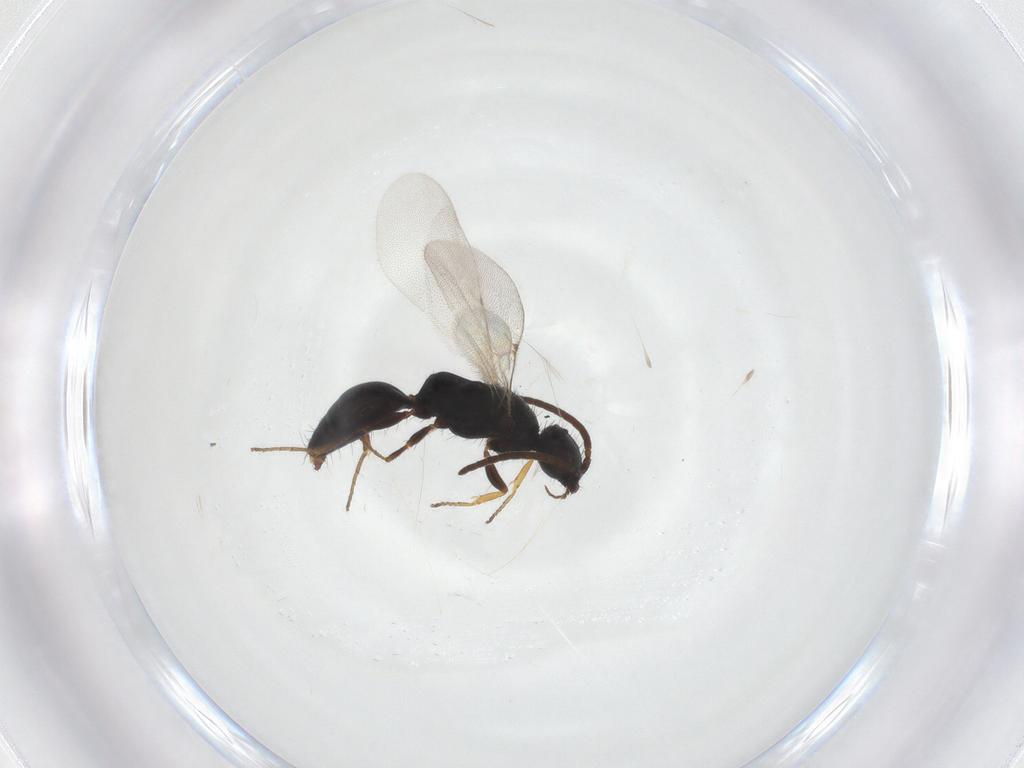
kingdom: Animalia
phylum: Arthropoda
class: Insecta
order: Hymenoptera
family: Bethylidae
